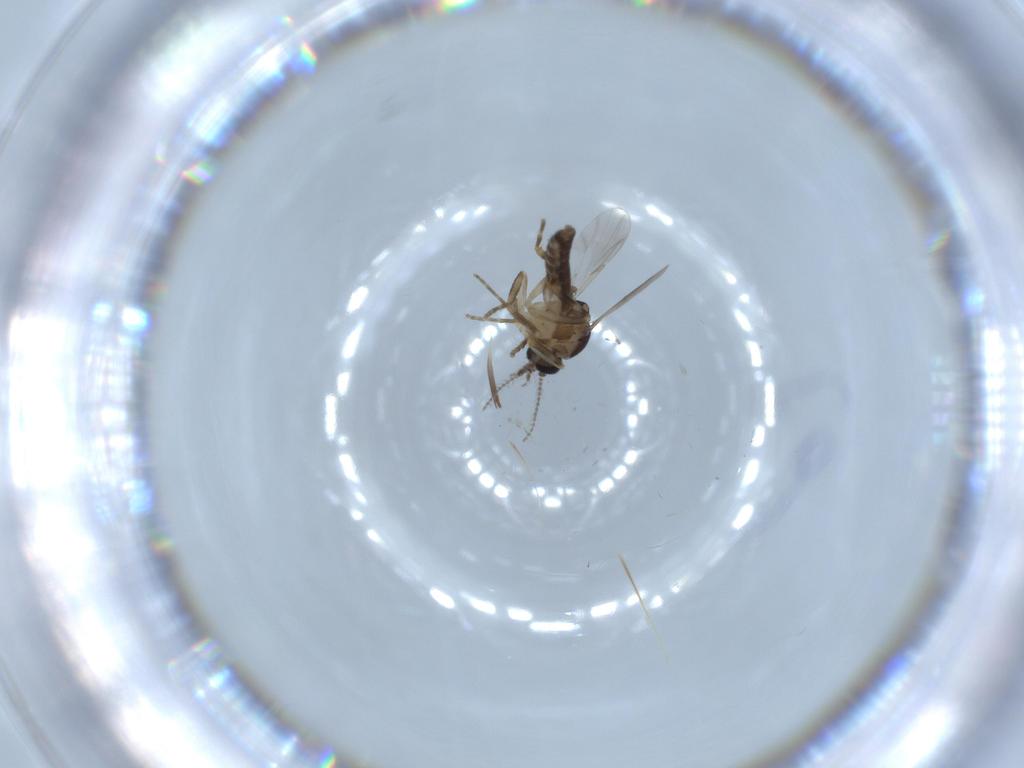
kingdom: Animalia
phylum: Arthropoda
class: Insecta
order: Diptera
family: Ceratopogonidae
